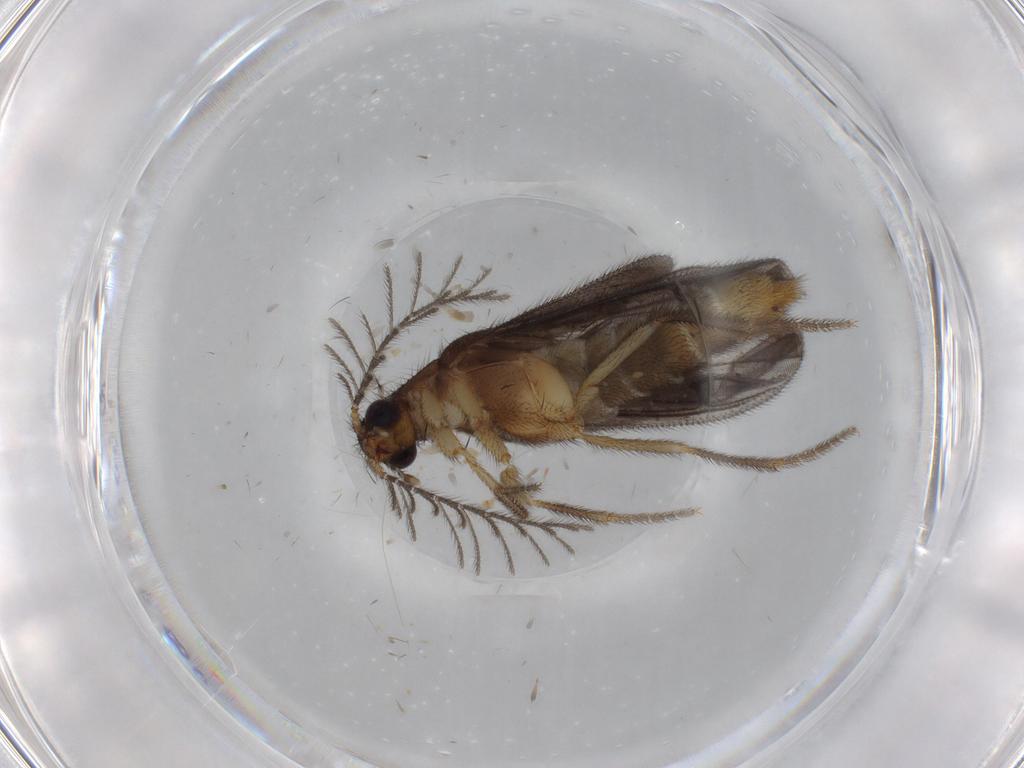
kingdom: Animalia
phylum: Arthropoda
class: Insecta
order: Coleoptera
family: Phengodidae
